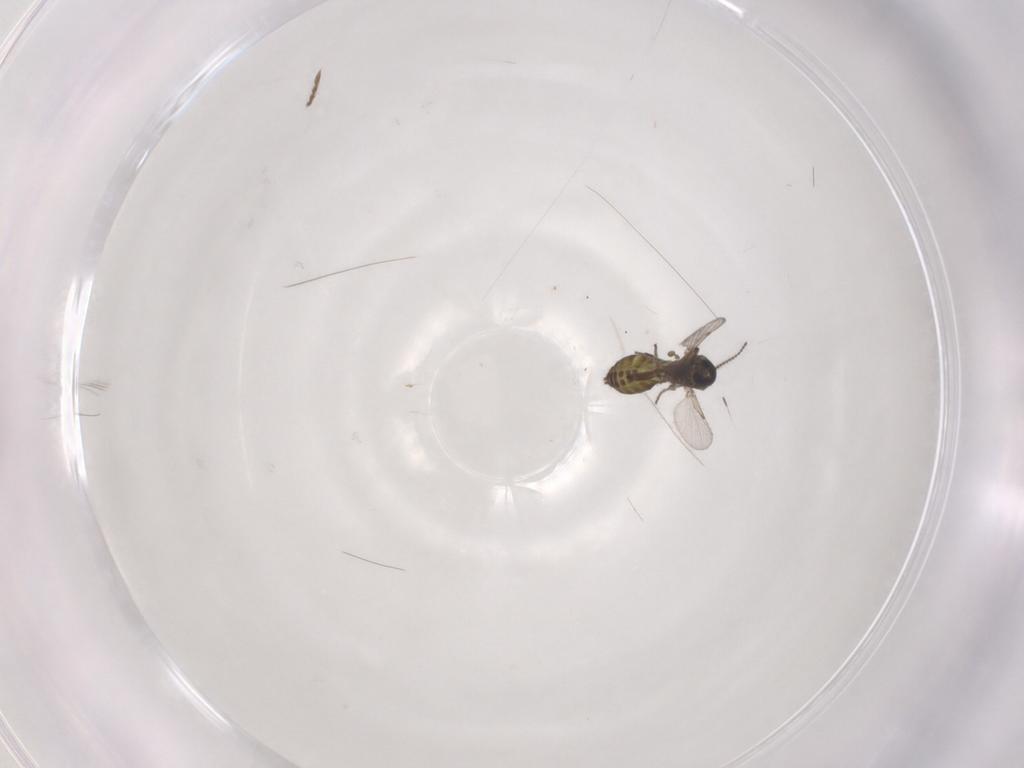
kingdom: Animalia
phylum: Arthropoda
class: Insecta
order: Diptera
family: Ceratopogonidae
